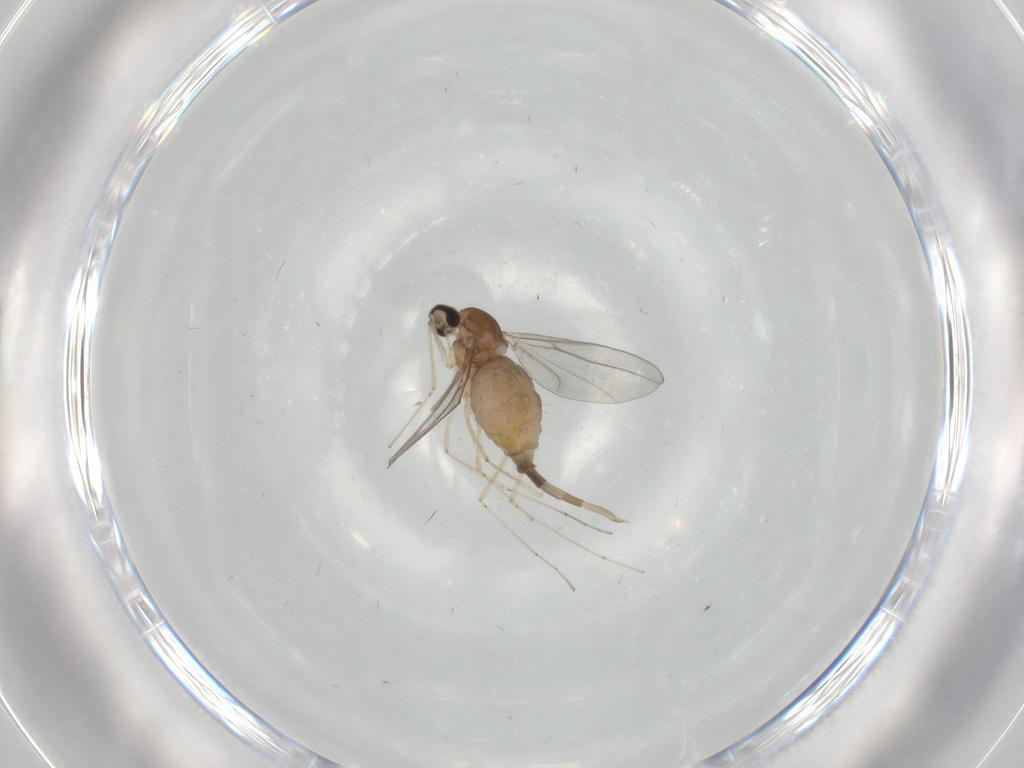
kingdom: Animalia
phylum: Arthropoda
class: Insecta
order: Diptera
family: Cecidomyiidae
